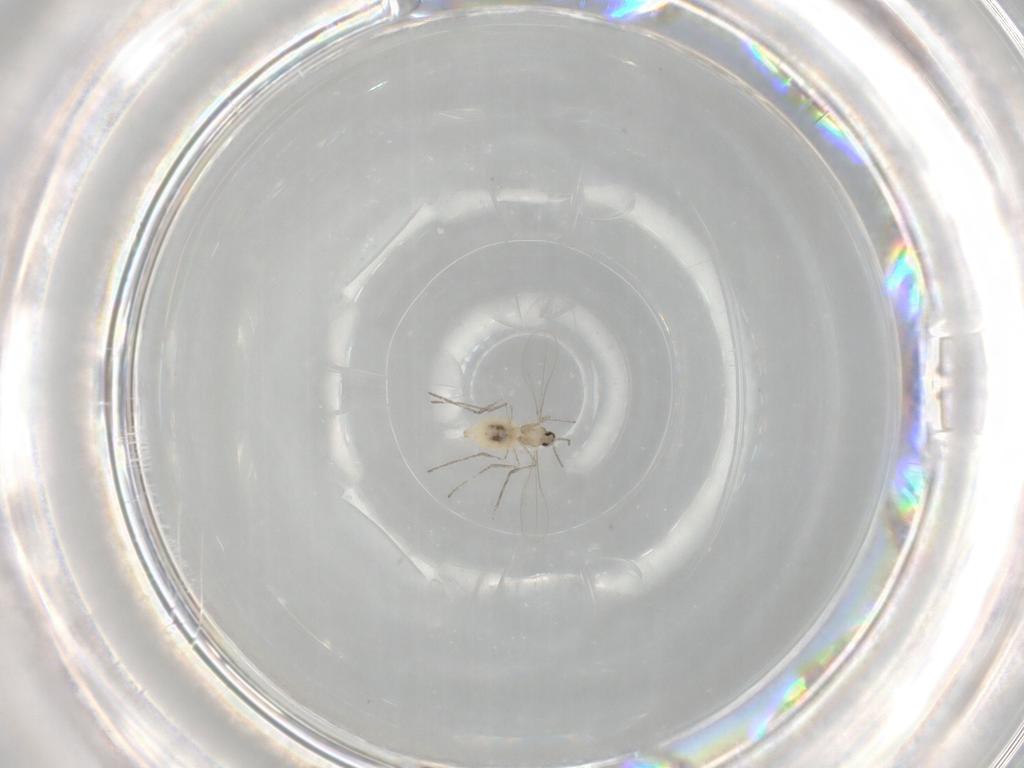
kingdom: Animalia
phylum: Arthropoda
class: Insecta
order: Diptera
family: Cecidomyiidae
